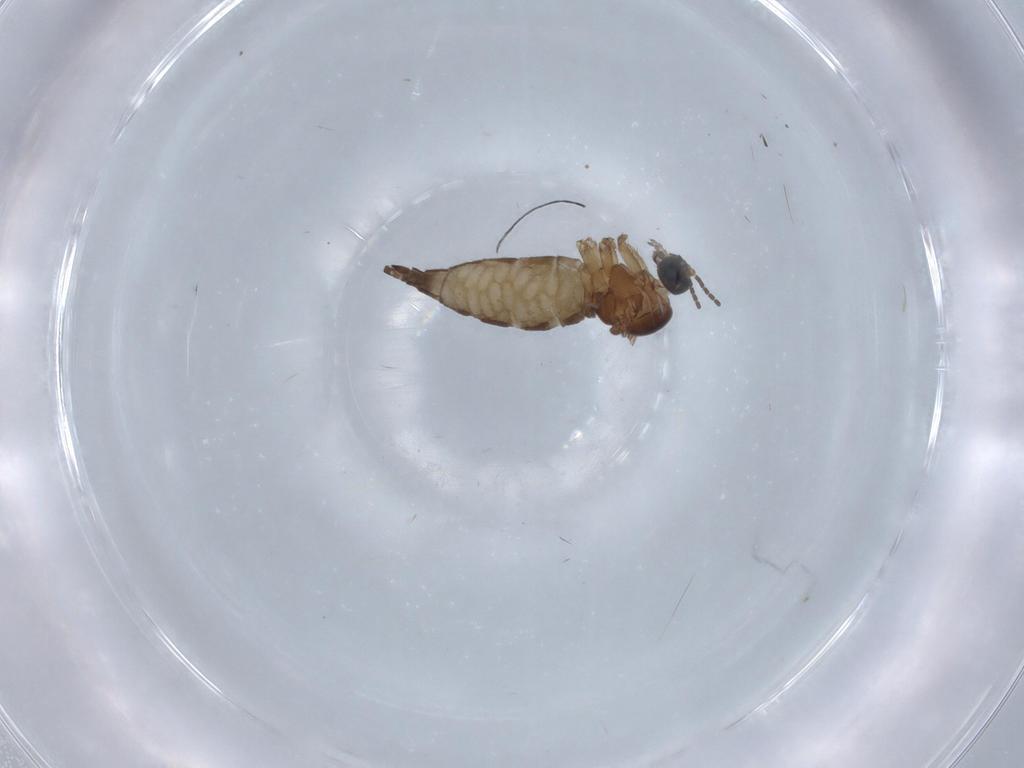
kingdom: Animalia
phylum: Arthropoda
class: Insecta
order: Diptera
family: Sciaridae
